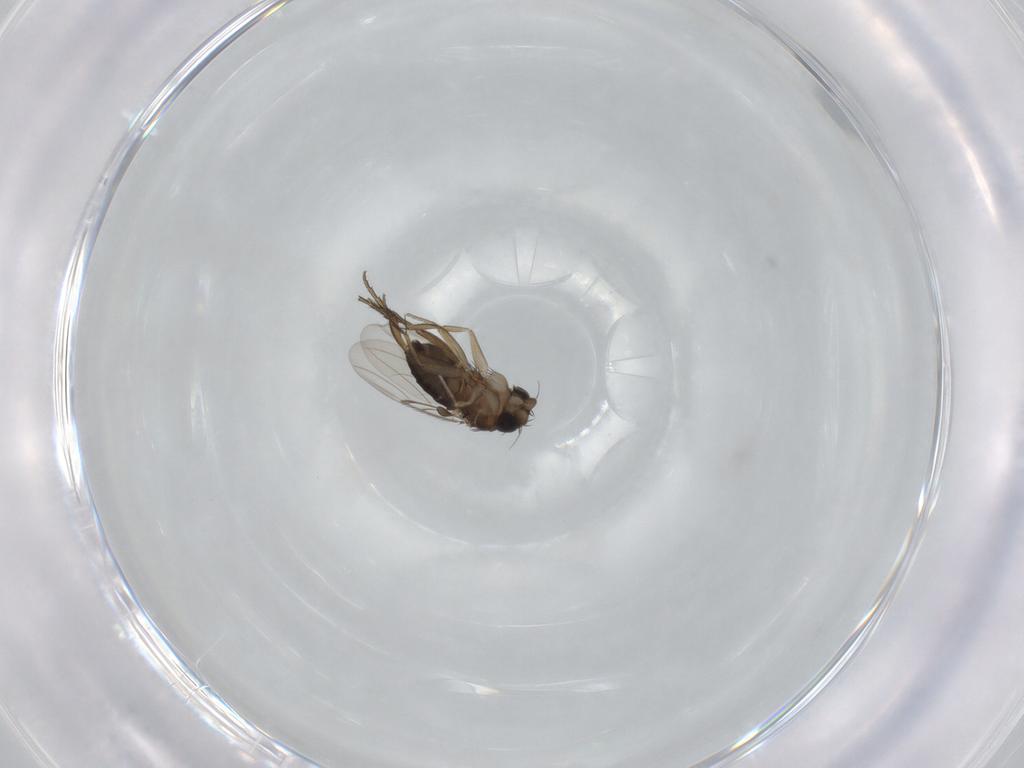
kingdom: Animalia
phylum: Arthropoda
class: Insecta
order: Diptera
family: Phoridae
